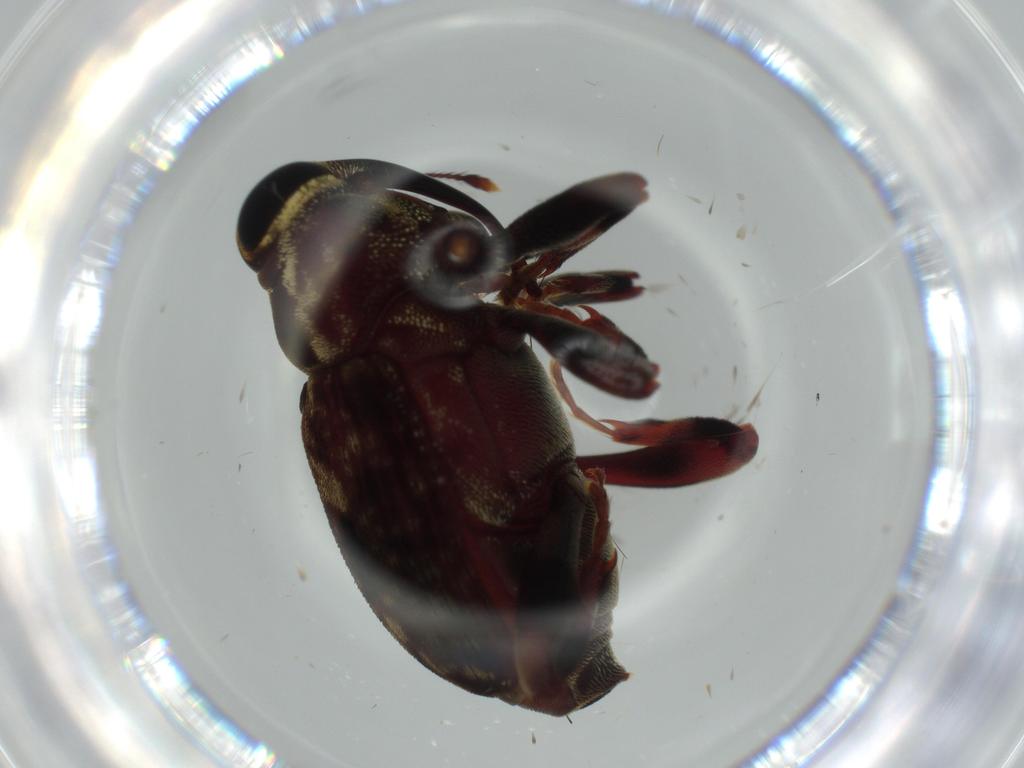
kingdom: Animalia
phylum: Arthropoda
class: Insecta
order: Coleoptera
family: Curculionidae
